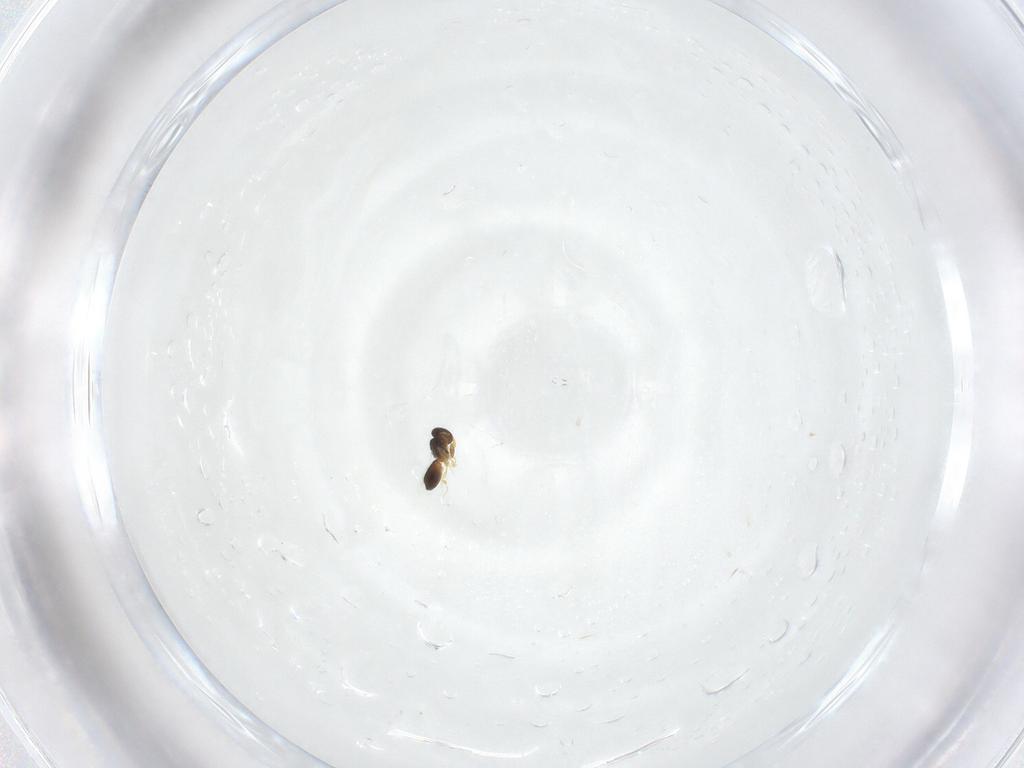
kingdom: Animalia
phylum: Arthropoda
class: Insecta
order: Hymenoptera
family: Platygastridae
